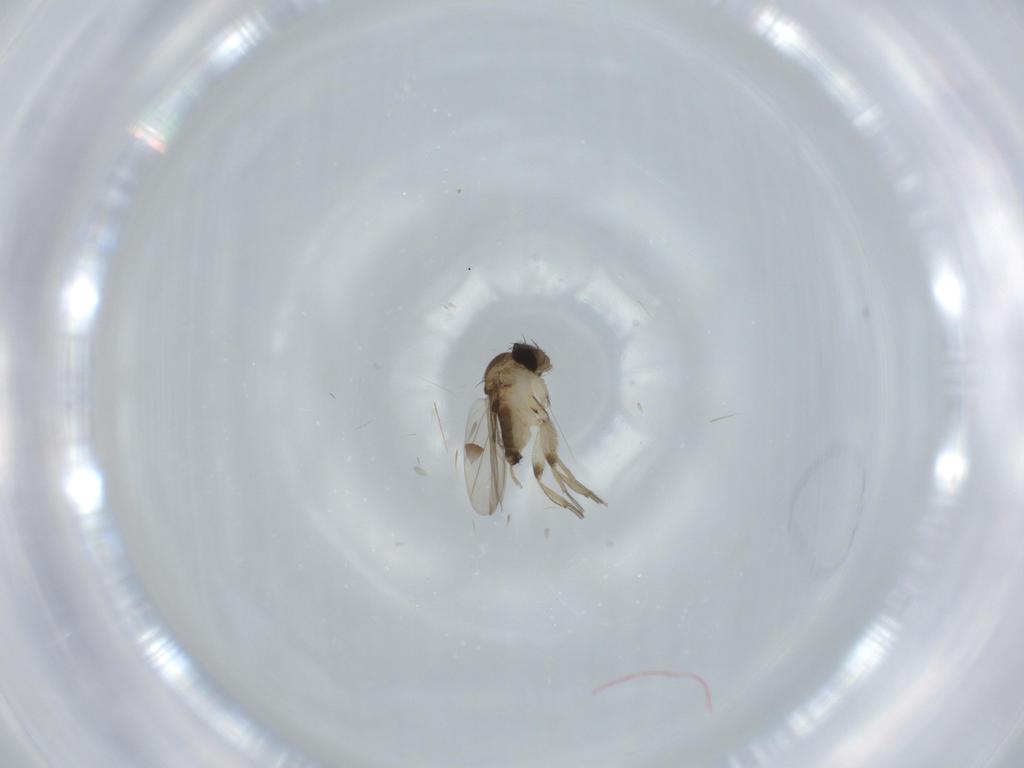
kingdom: Animalia
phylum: Arthropoda
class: Insecta
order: Diptera
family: Phoridae
